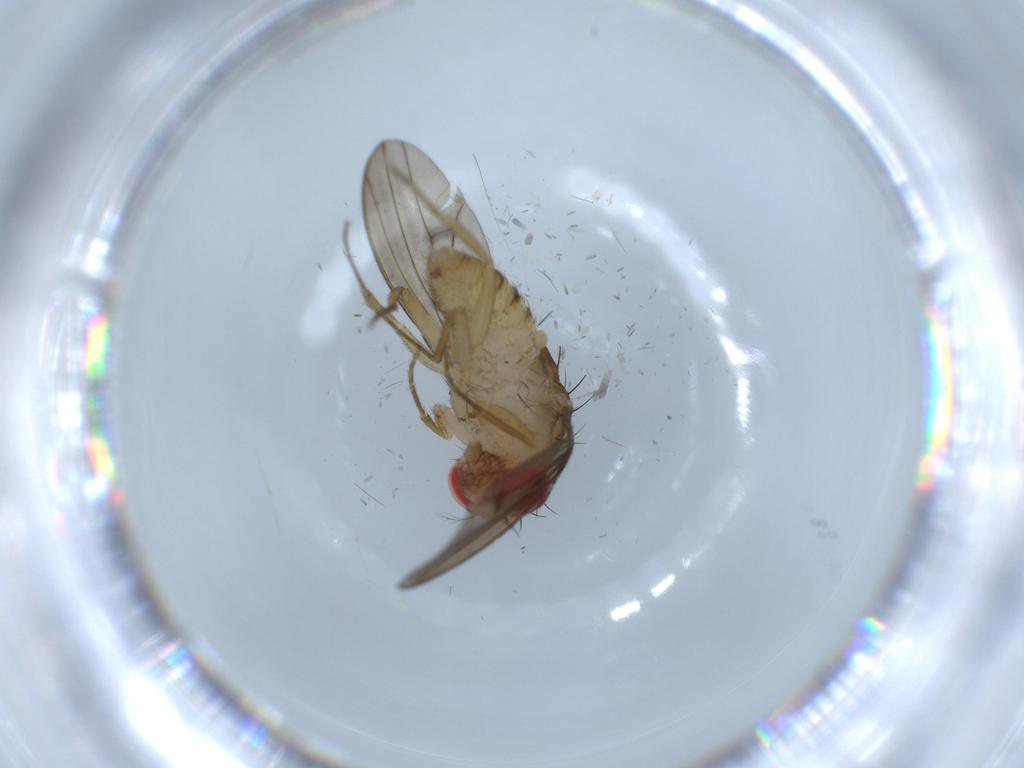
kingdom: Animalia
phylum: Arthropoda
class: Insecta
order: Diptera
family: Drosophilidae
